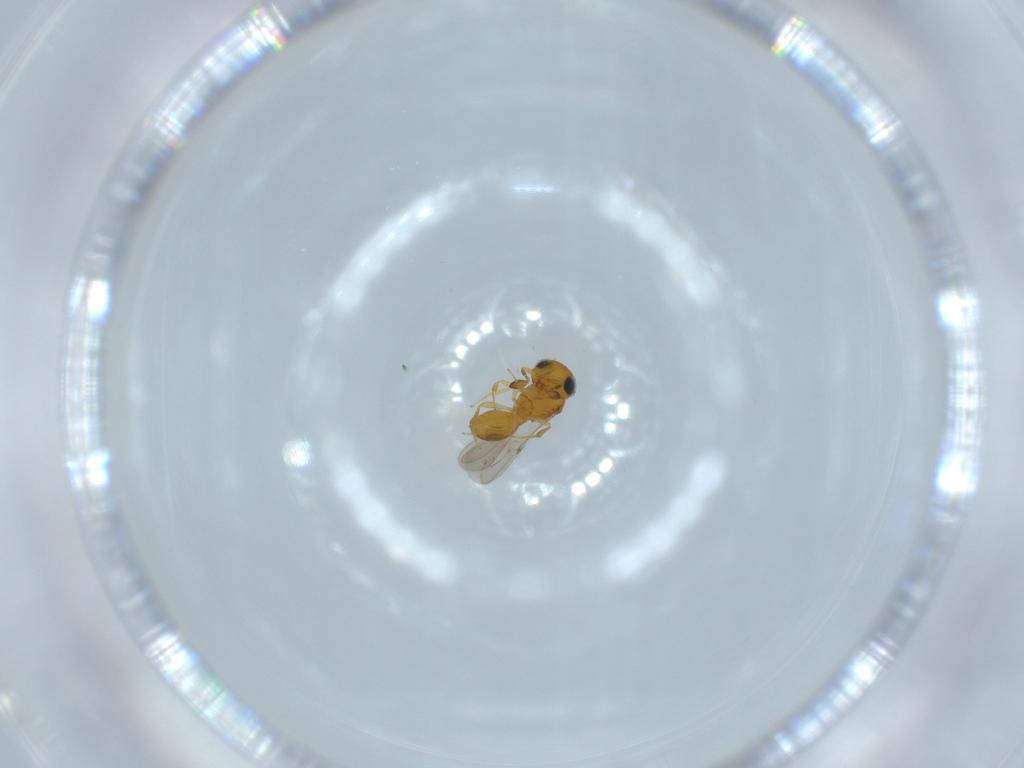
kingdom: Animalia
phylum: Arthropoda
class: Insecta
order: Hymenoptera
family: Scelionidae
